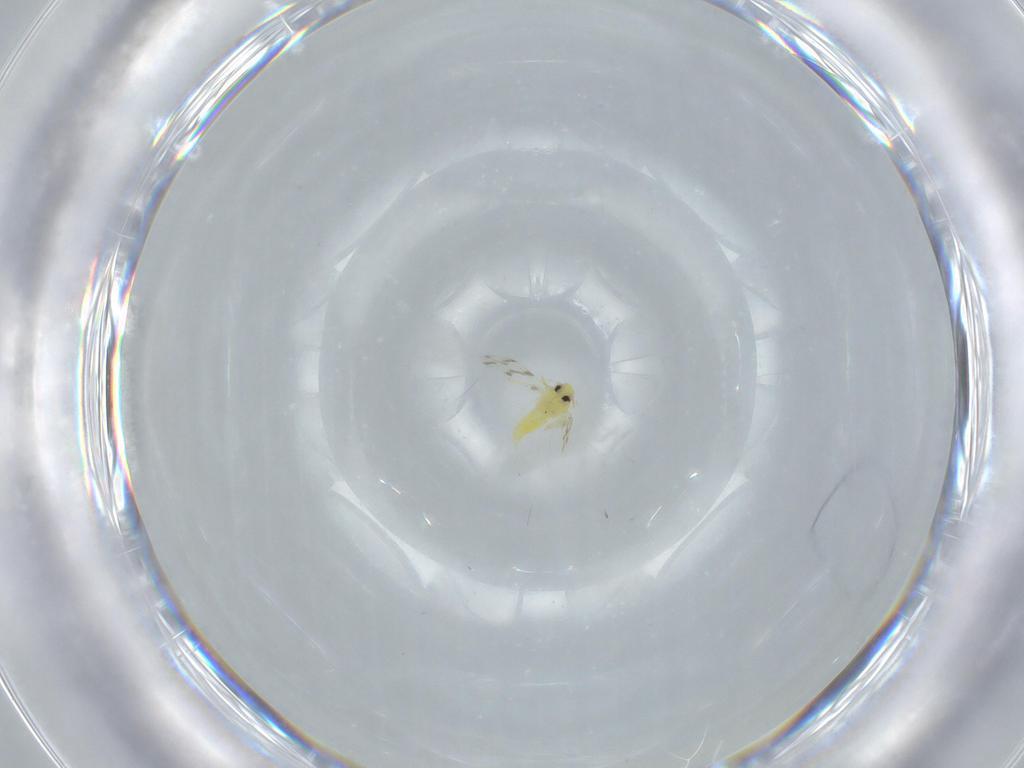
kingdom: Animalia
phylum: Arthropoda
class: Insecta
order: Hemiptera
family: Aleyrodidae
